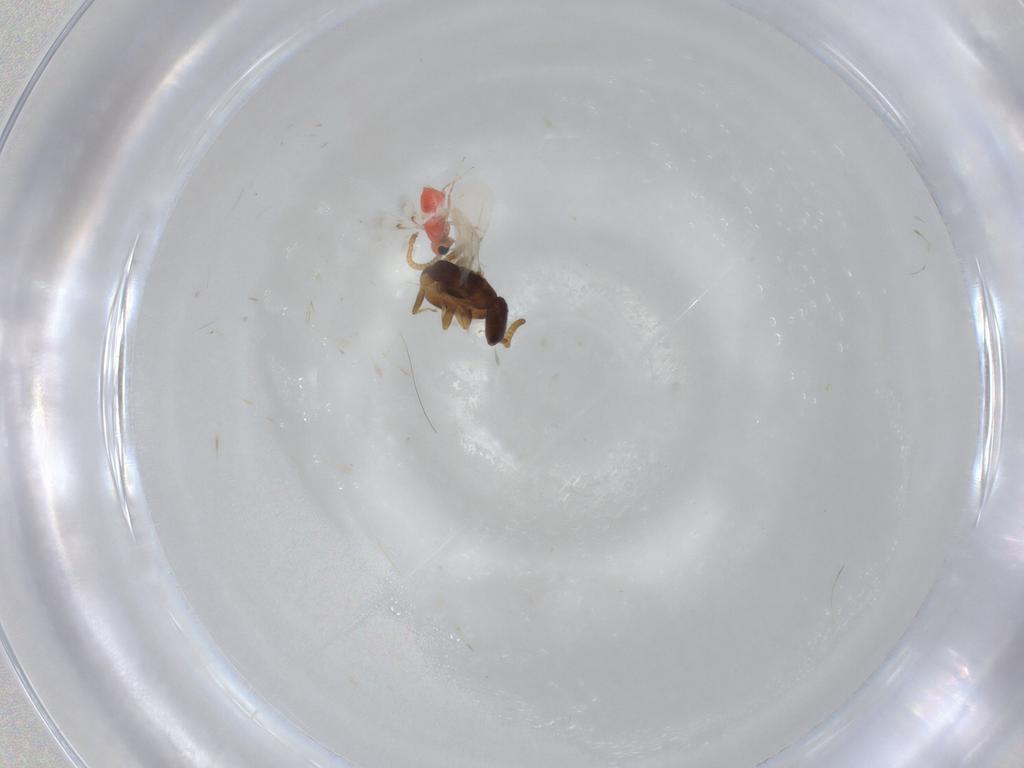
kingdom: Animalia
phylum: Arthropoda
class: Insecta
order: Hymenoptera
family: Bethylidae
